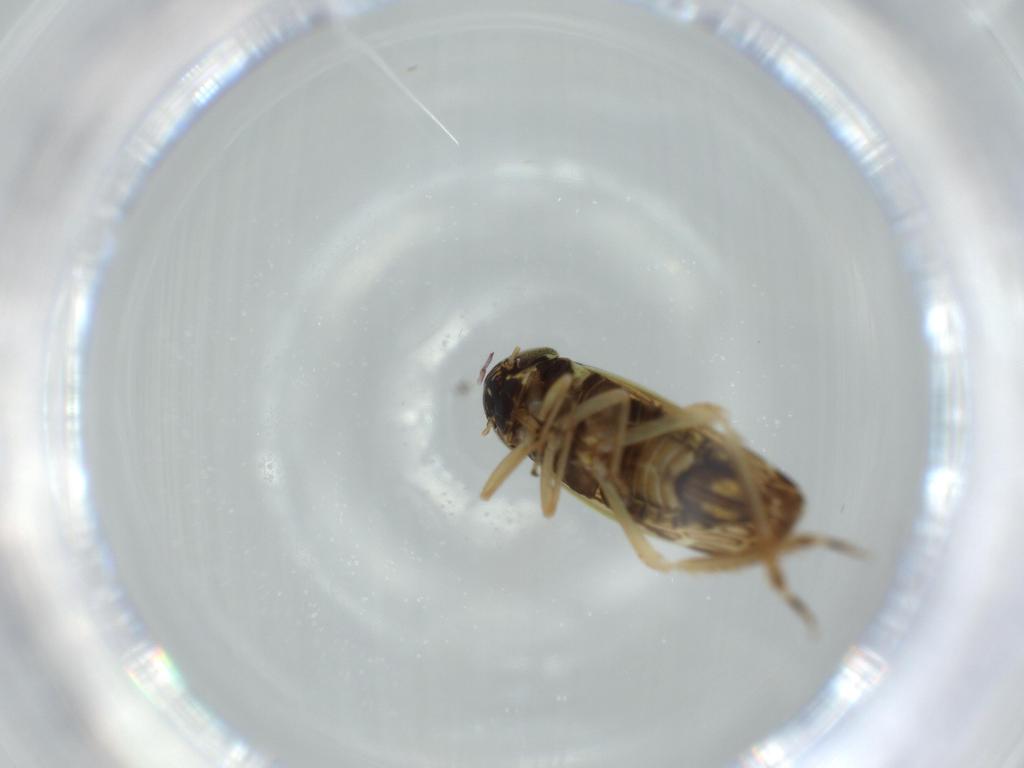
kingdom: Animalia
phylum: Arthropoda
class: Insecta
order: Hemiptera
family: Cicadellidae
